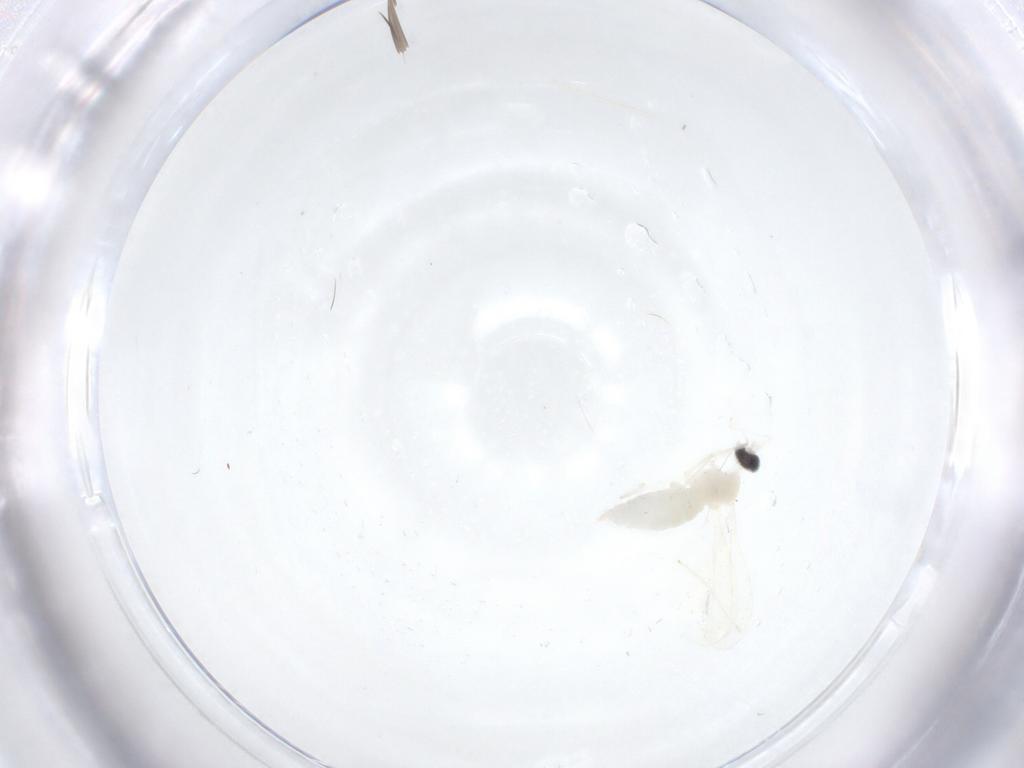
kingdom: Animalia
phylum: Arthropoda
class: Insecta
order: Diptera
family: Cecidomyiidae
